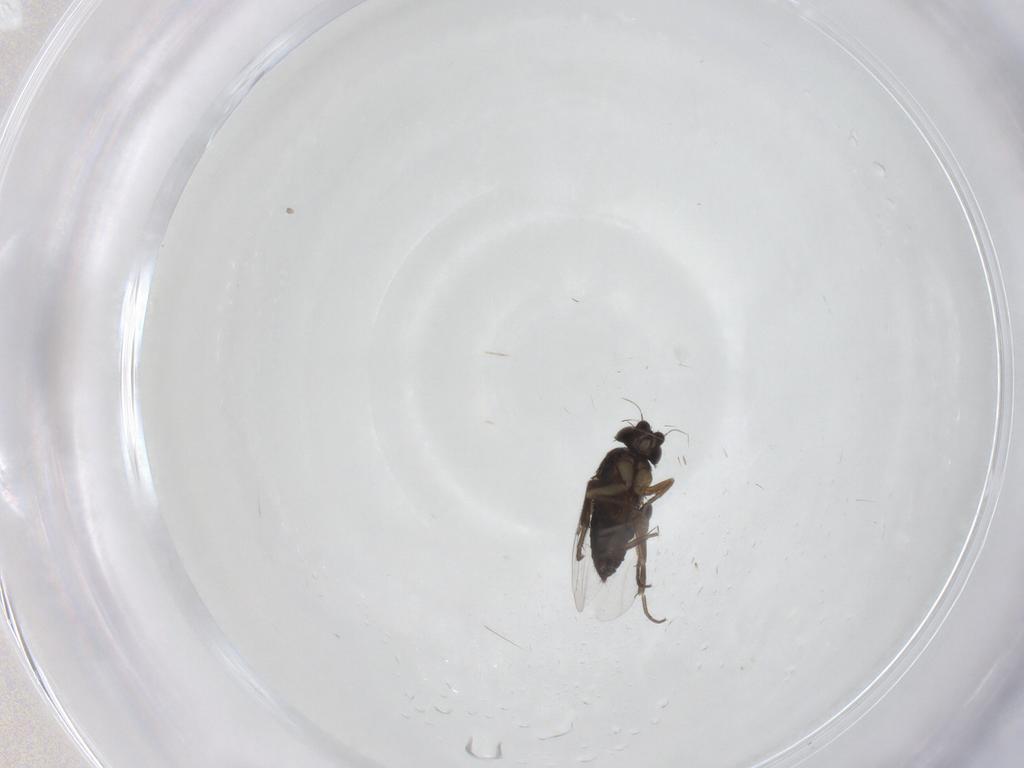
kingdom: Animalia
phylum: Arthropoda
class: Insecta
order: Diptera
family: Phoridae
